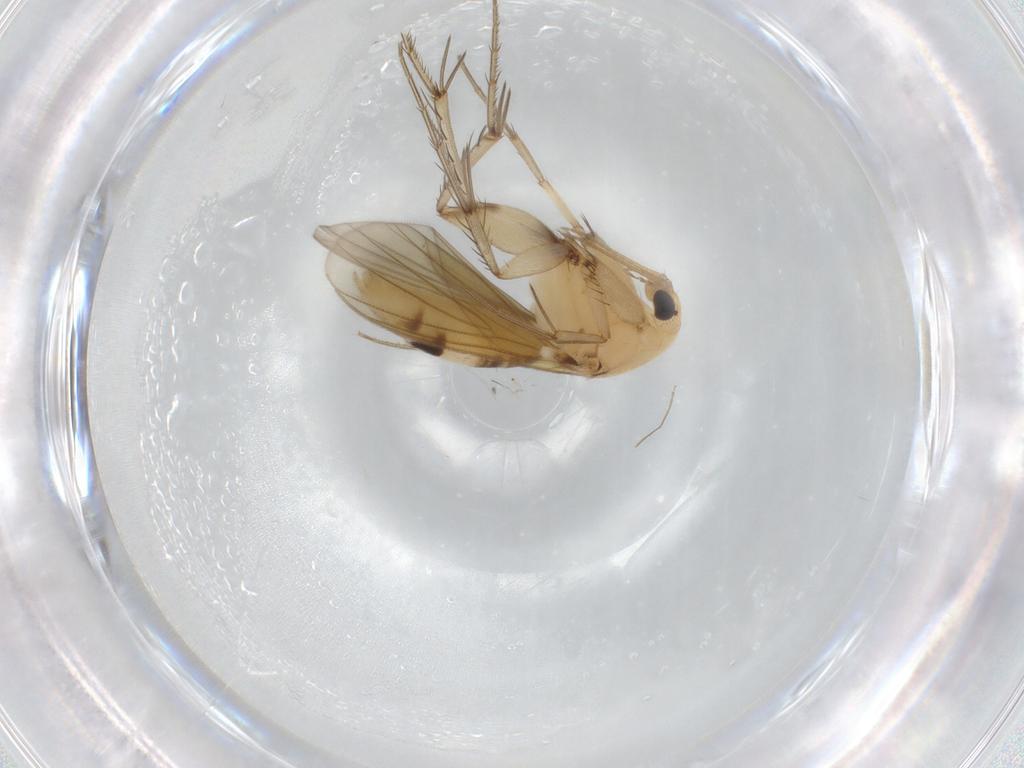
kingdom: Animalia
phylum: Arthropoda
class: Insecta
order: Diptera
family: Mycetophilidae
